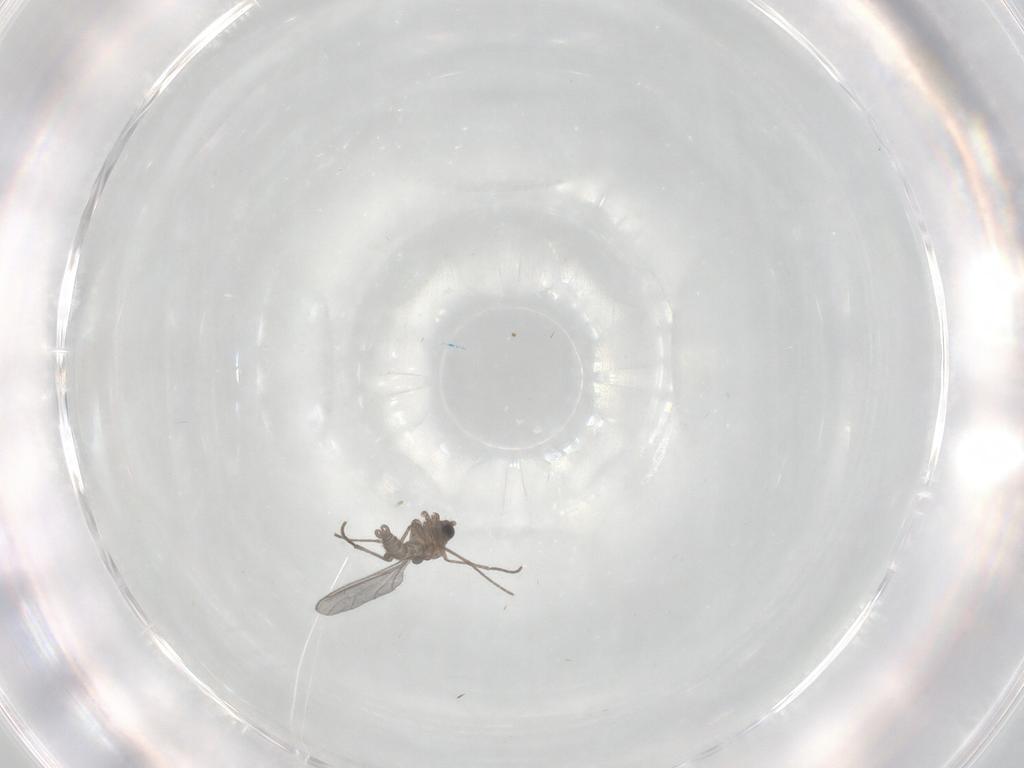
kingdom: Animalia
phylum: Arthropoda
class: Insecta
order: Diptera
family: Sciaridae
